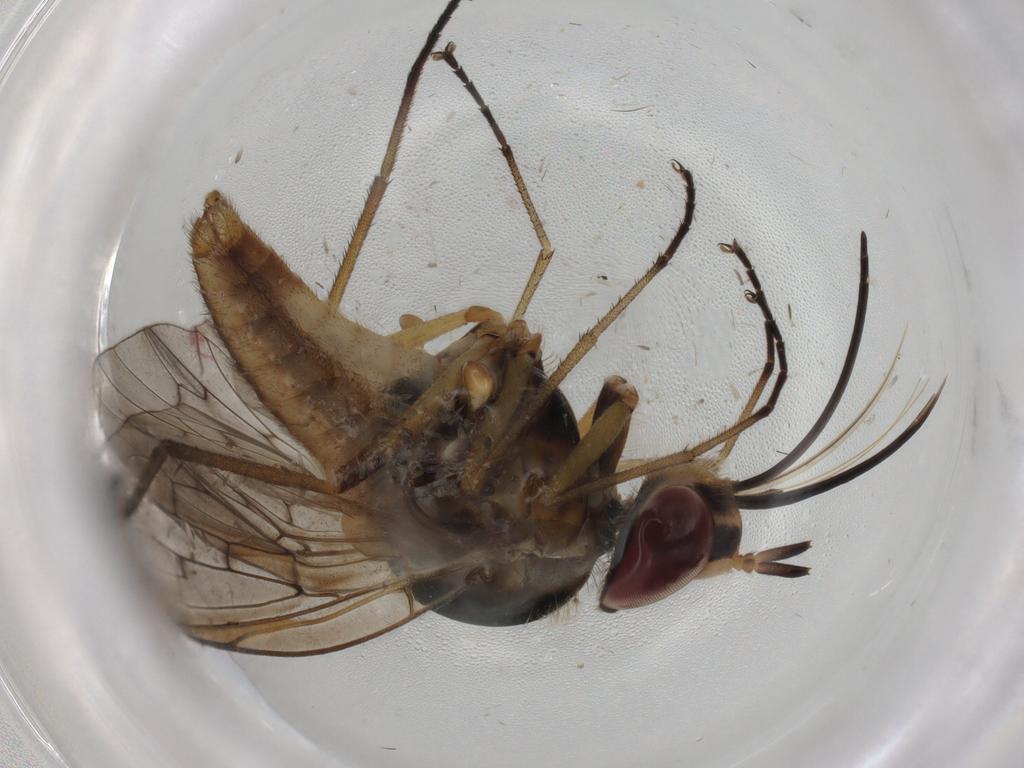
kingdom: Animalia
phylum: Arthropoda
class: Insecta
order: Diptera
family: Bombyliidae
